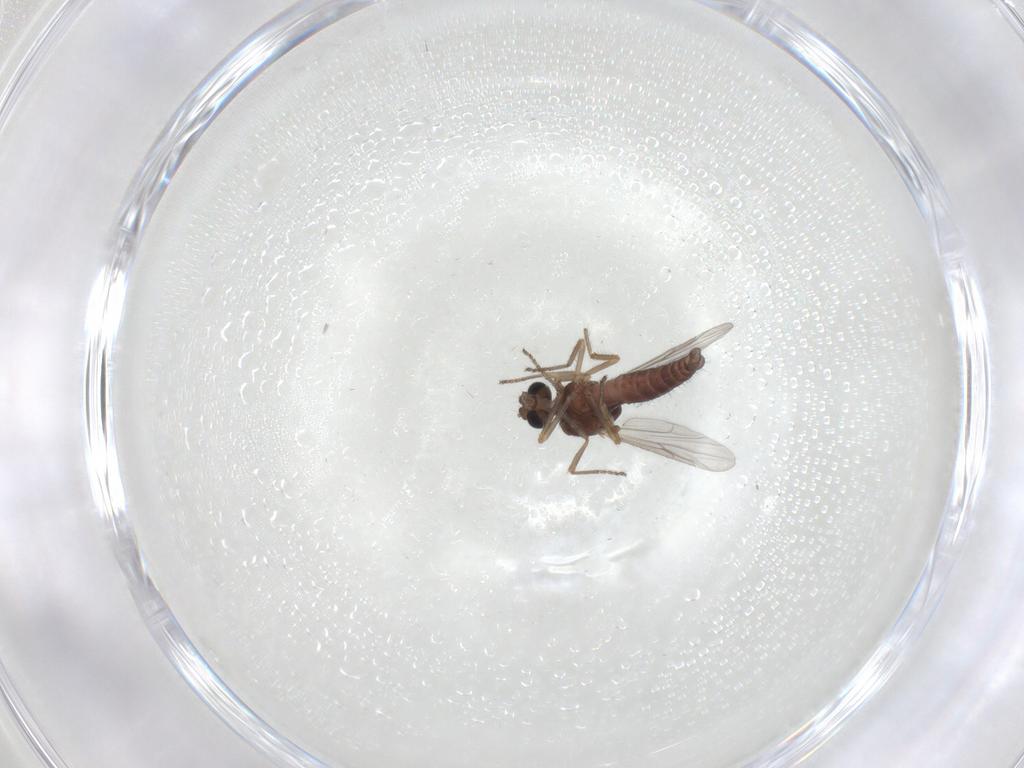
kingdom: Animalia
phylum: Arthropoda
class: Insecta
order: Diptera
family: Ceratopogonidae
